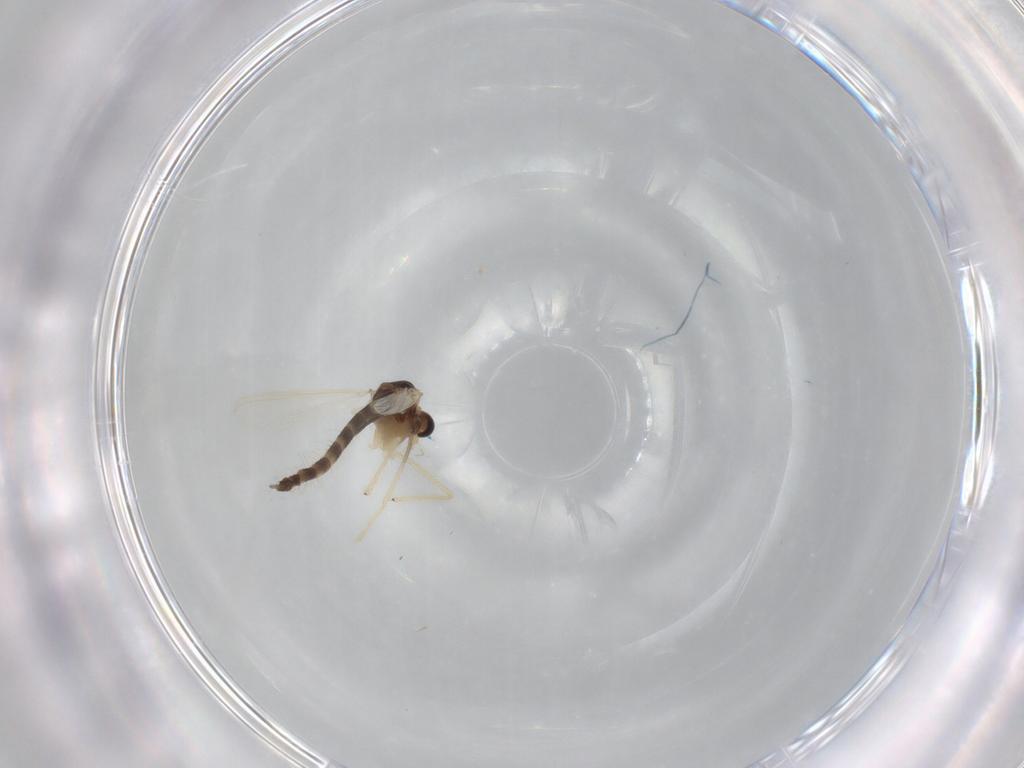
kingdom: Animalia
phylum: Arthropoda
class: Insecta
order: Diptera
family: Chironomidae
